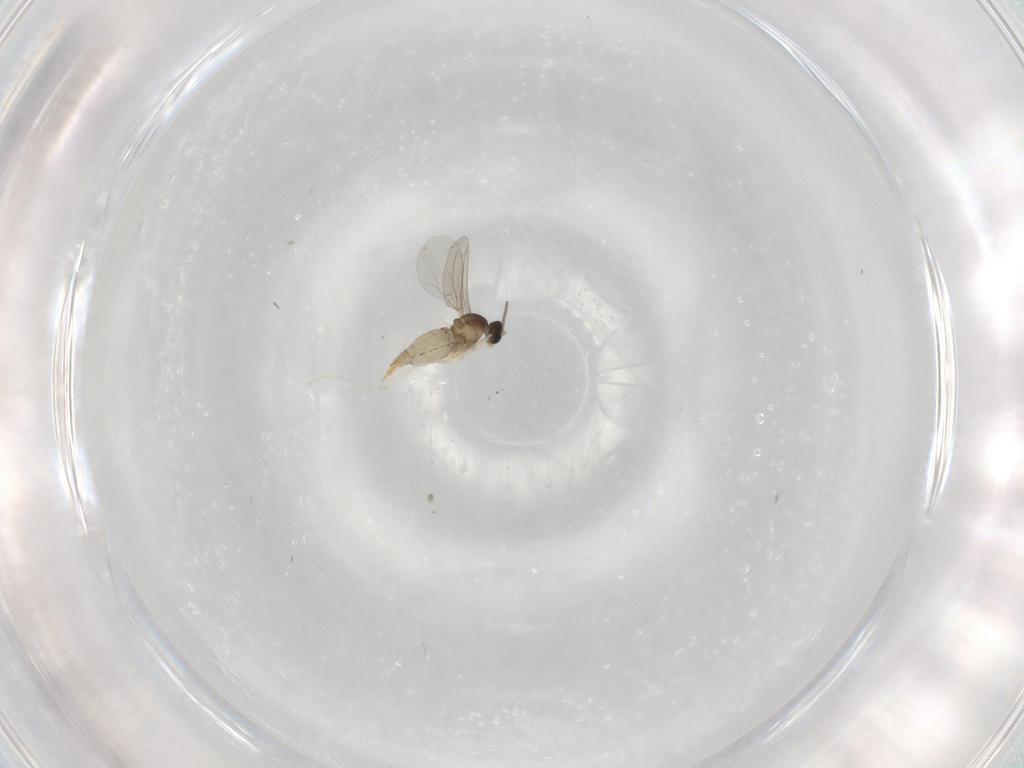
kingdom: Animalia
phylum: Arthropoda
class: Insecta
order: Diptera
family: Cecidomyiidae
